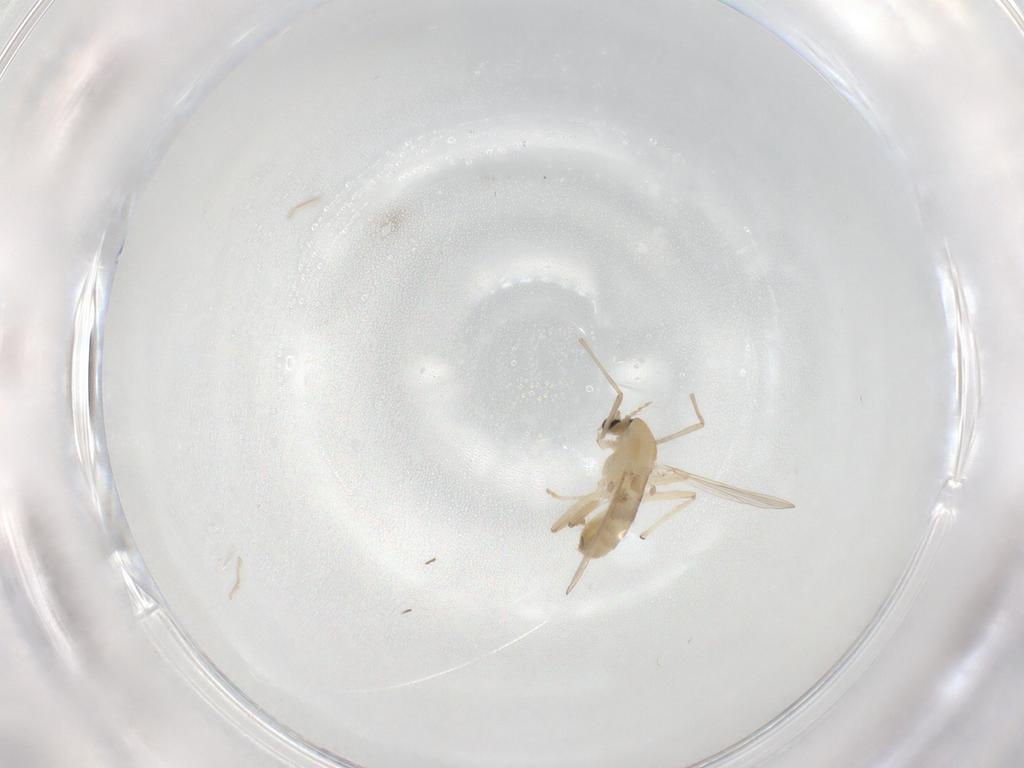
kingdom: Animalia
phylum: Arthropoda
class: Insecta
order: Diptera
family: Chironomidae
